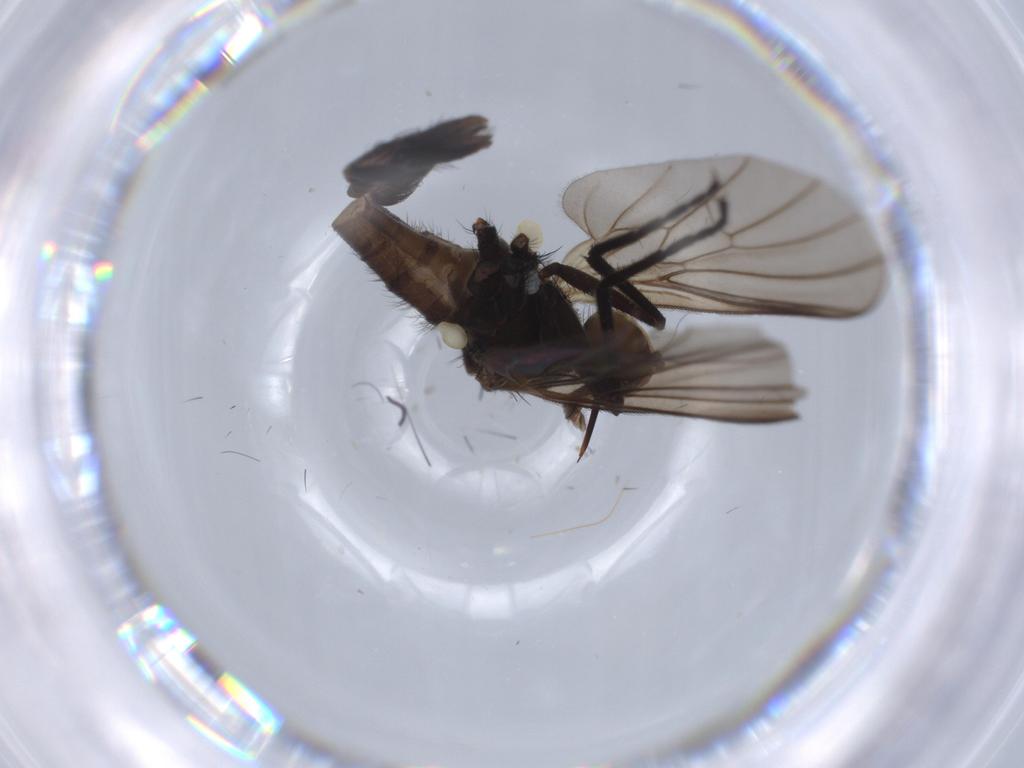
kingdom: Animalia
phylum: Arthropoda
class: Insecta
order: Diptera
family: Empididae
